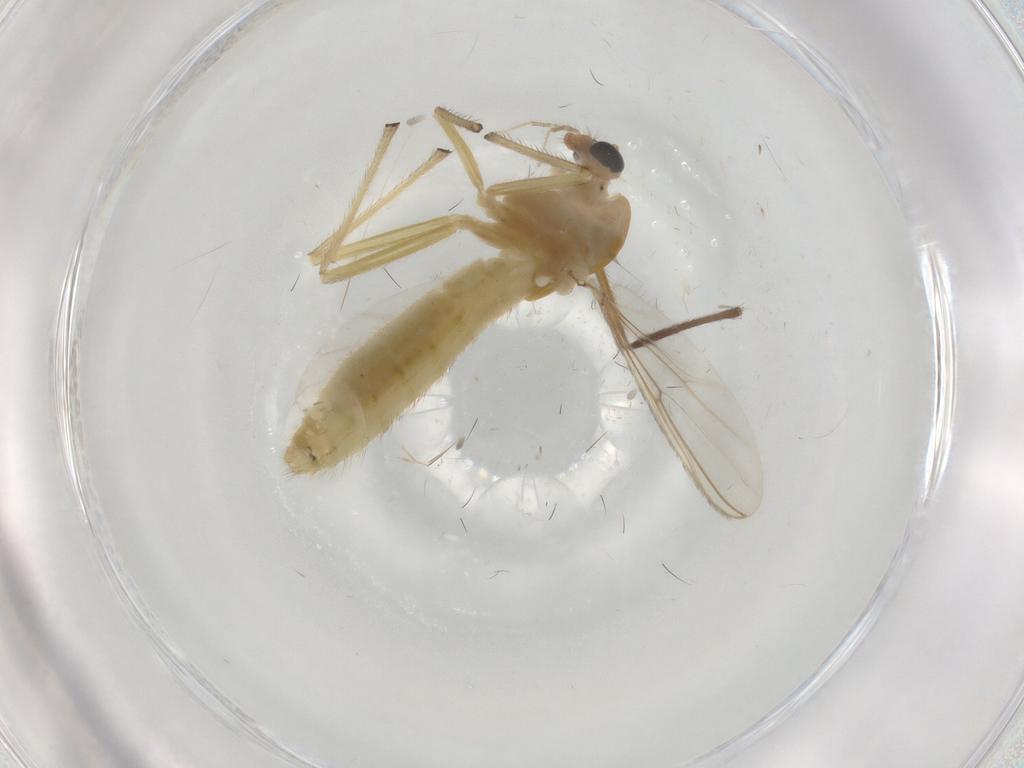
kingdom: Animalia
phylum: Arthropoda
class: Insecta
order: Diptera
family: Chironomidae
